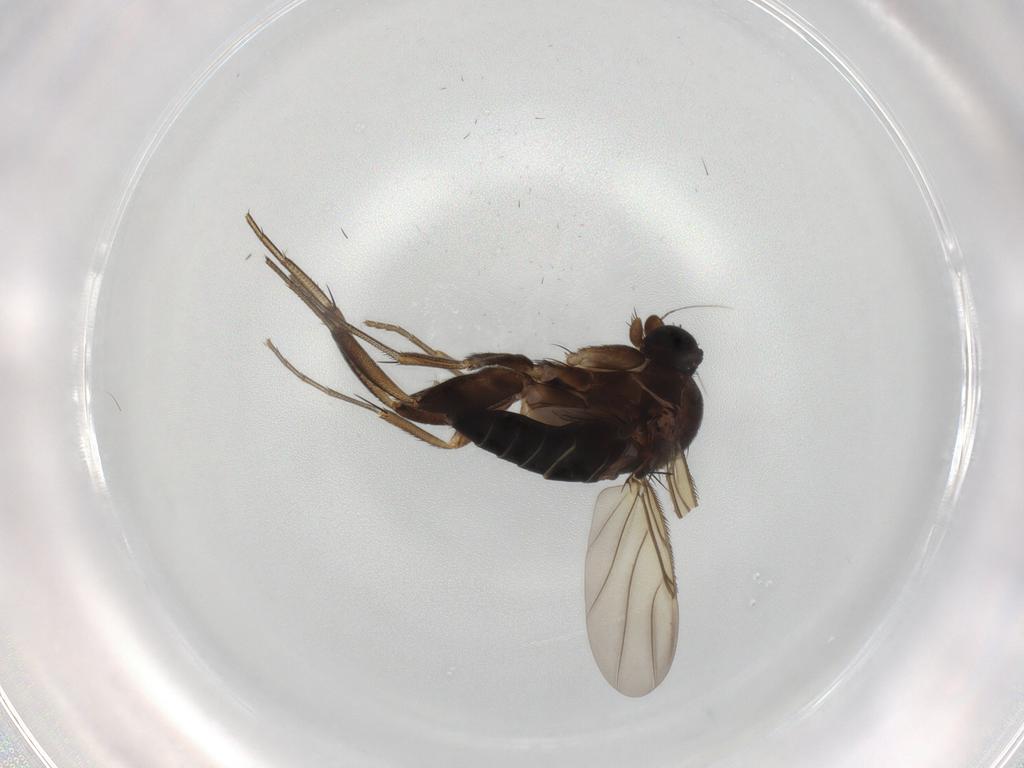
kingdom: Animalia
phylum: Arthropoda
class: Insecta
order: Diptera
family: Phoridae
